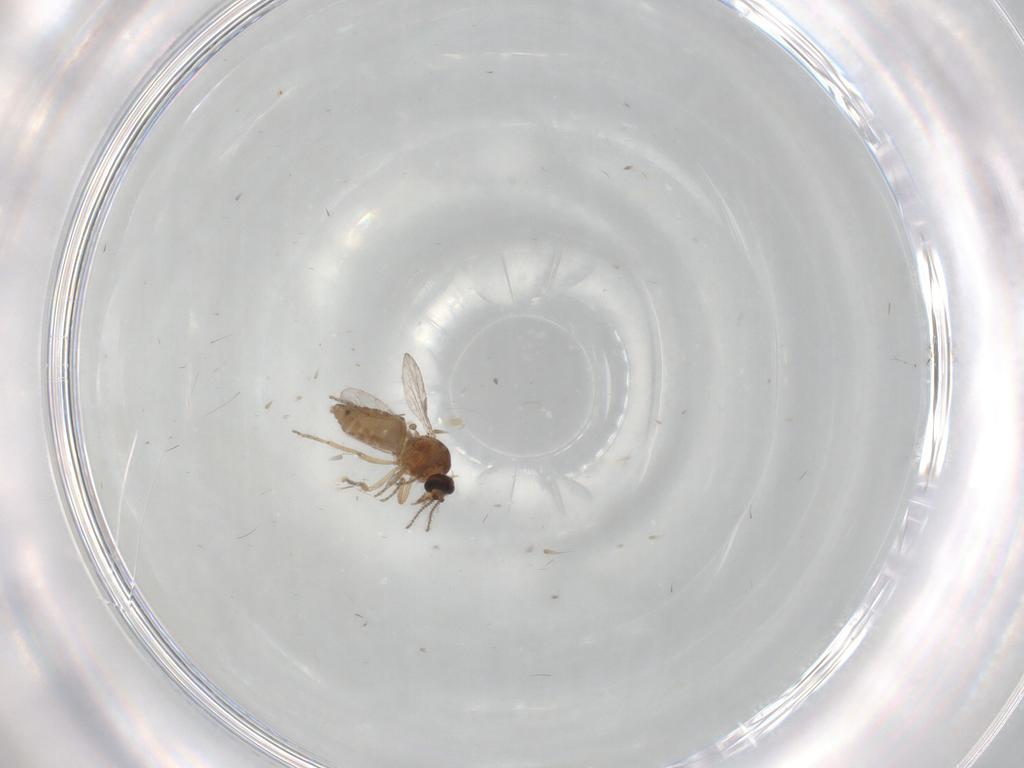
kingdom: Animalia
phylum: Arthropoda
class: Insecta
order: Diptera
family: Ceratopogonidae
